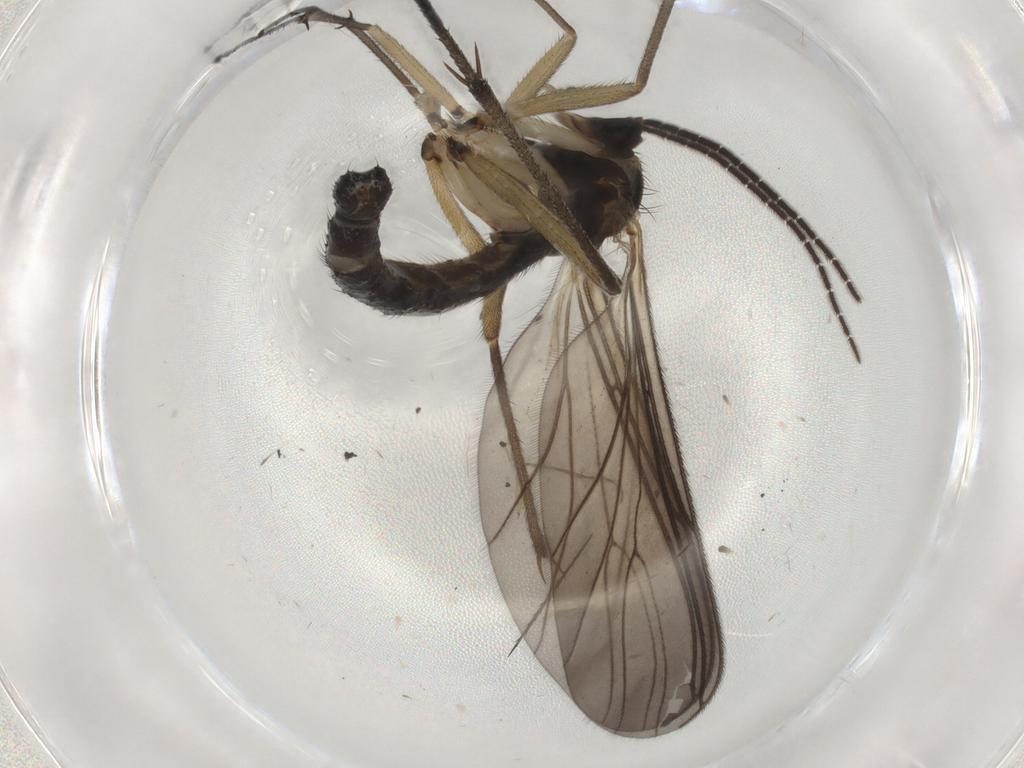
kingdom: Animalia
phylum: Arthropoda
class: Insecta
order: Diptera
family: Sciaridae
